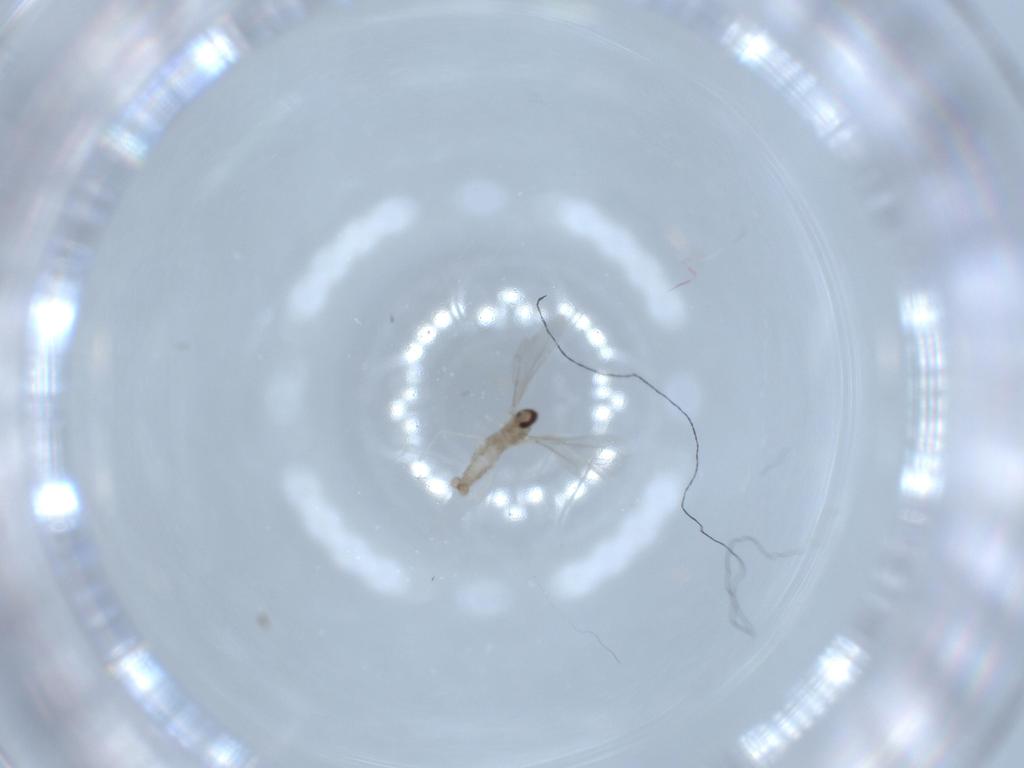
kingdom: Animalia
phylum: Arthropoda
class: Insecta
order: Diptera
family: Cecidomyiidae
